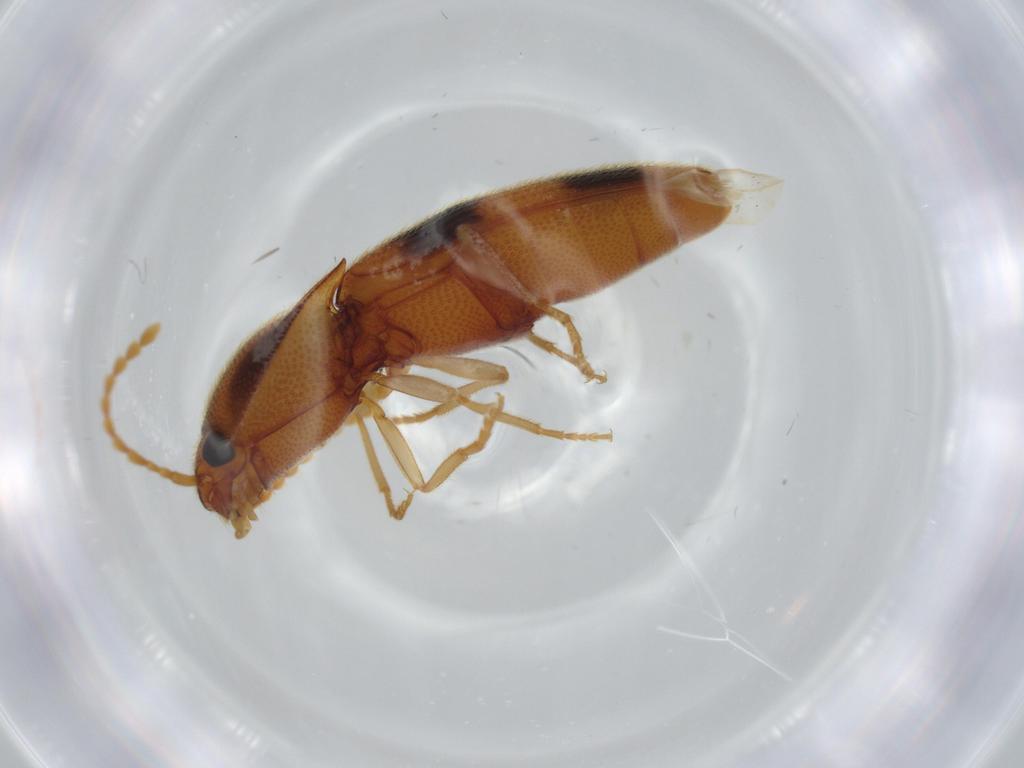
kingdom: Animalia
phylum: Arthropoda
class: Insecta
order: Coleoptera
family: Elateridae
